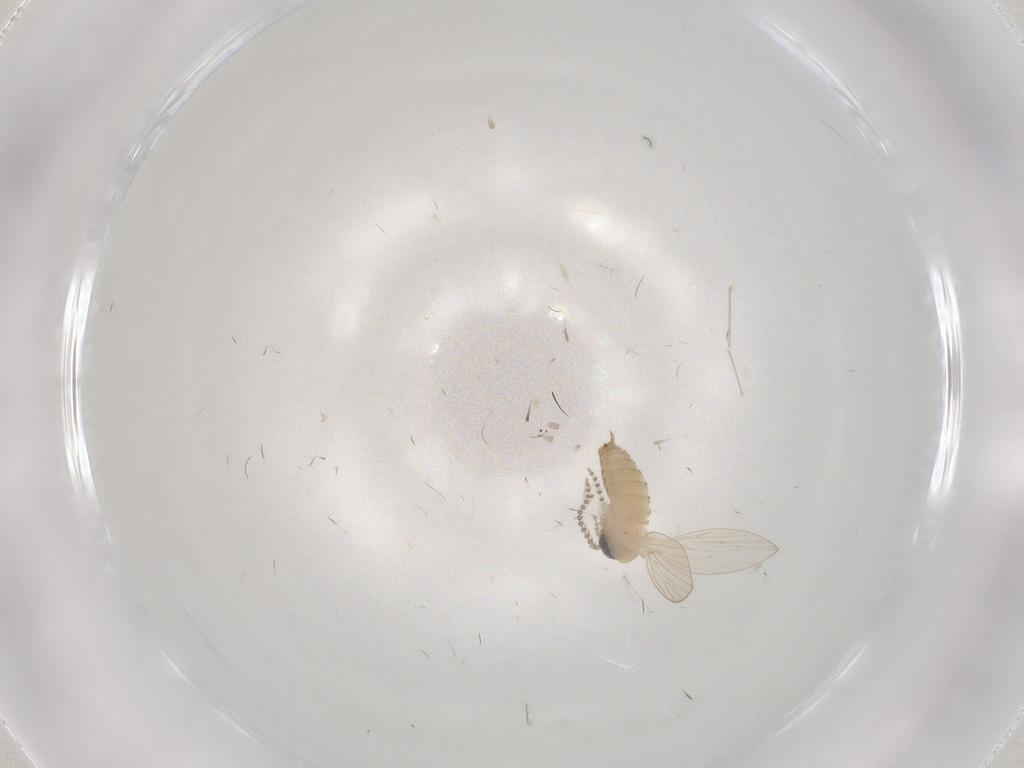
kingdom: Animalia
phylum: Arthropoda
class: Insecta
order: Diptera
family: Psychodidae
